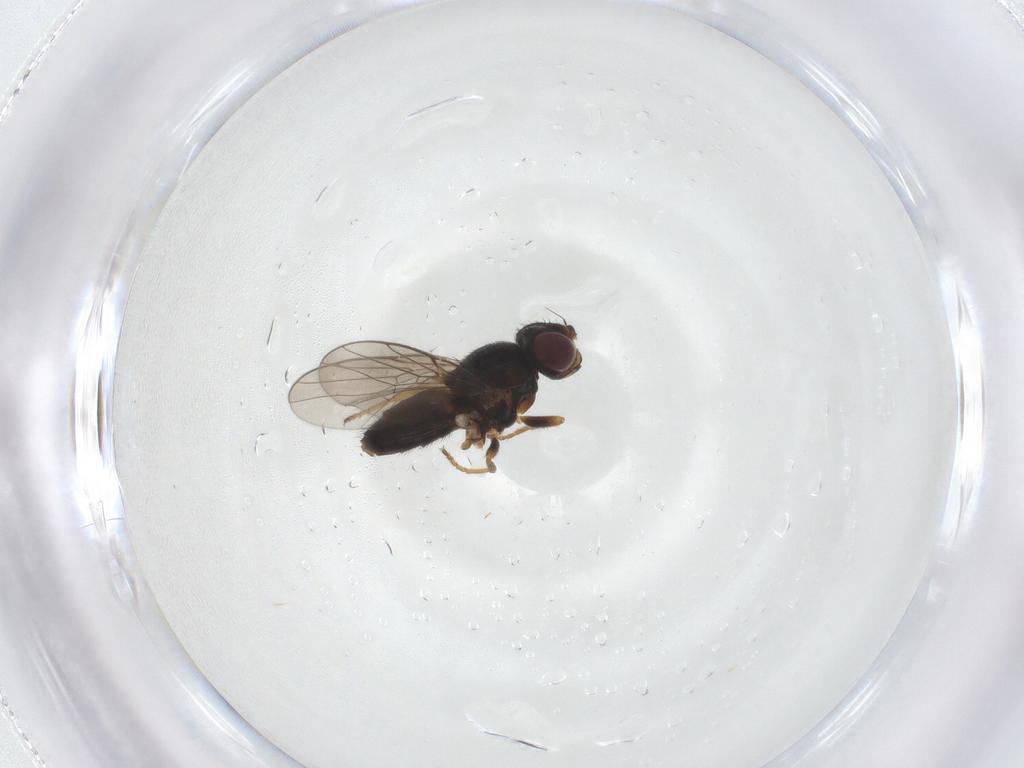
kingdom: Animalia
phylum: Arthropoda
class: Insecta
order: Diptera
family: Chloropidae
